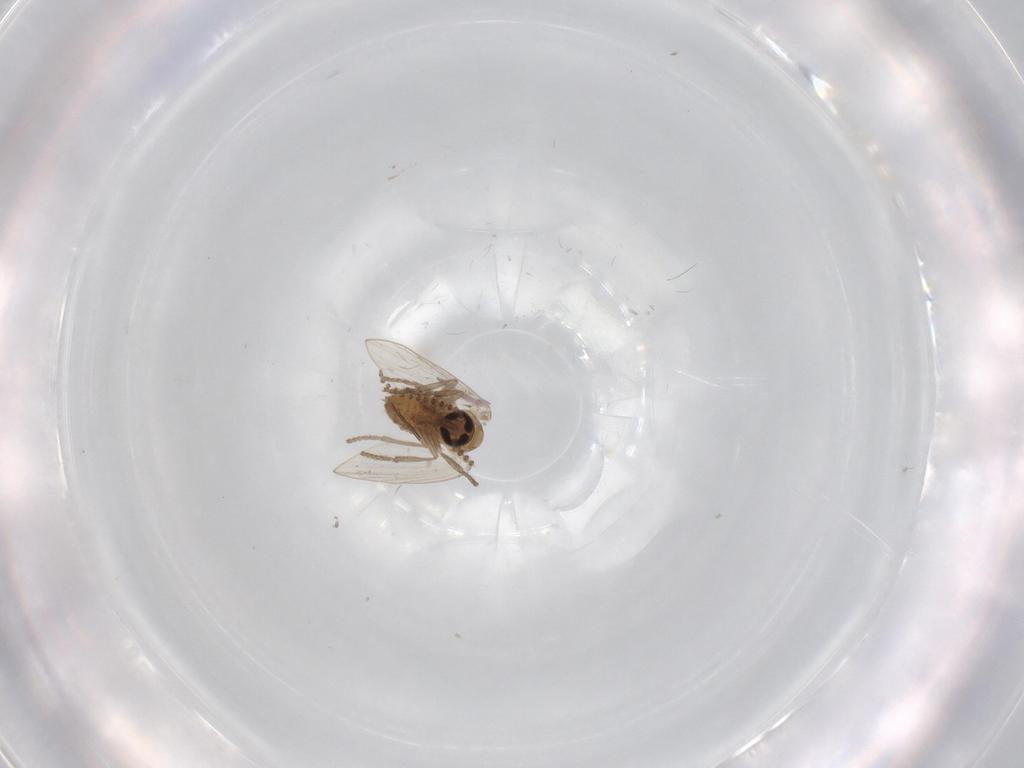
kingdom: Animalia
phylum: Arthropoda
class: Insecta
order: Diptera
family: Psychodidae
